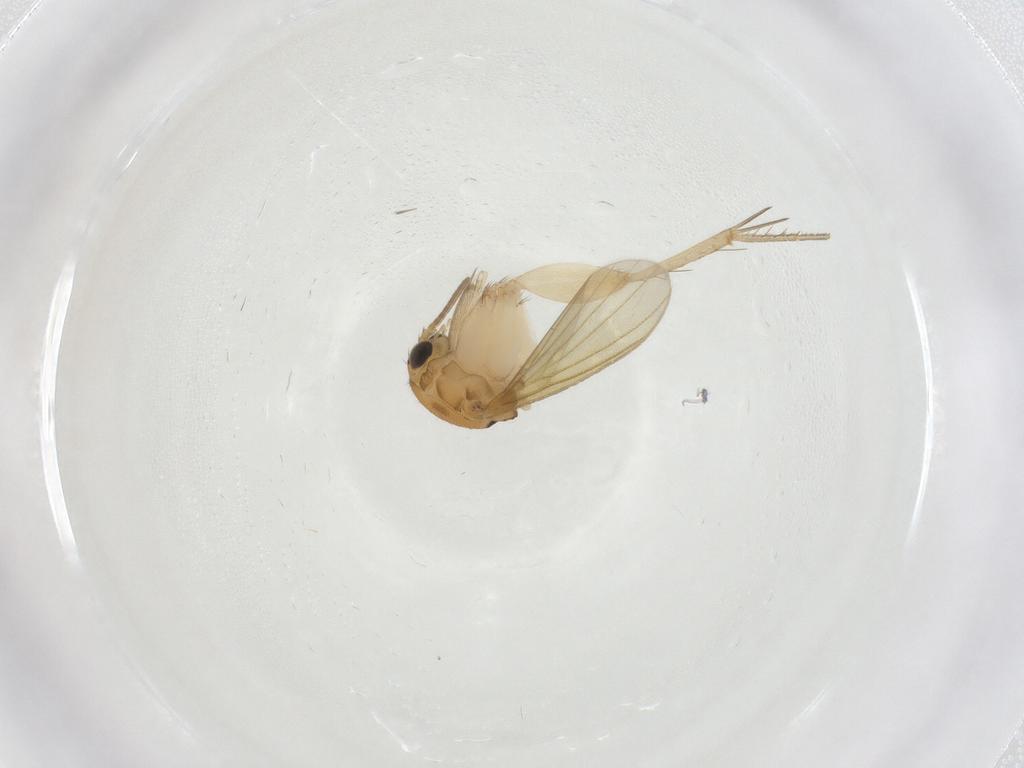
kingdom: Animalia
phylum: Arthropoda
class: Insecta
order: Diptera
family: Mycetophilidae
